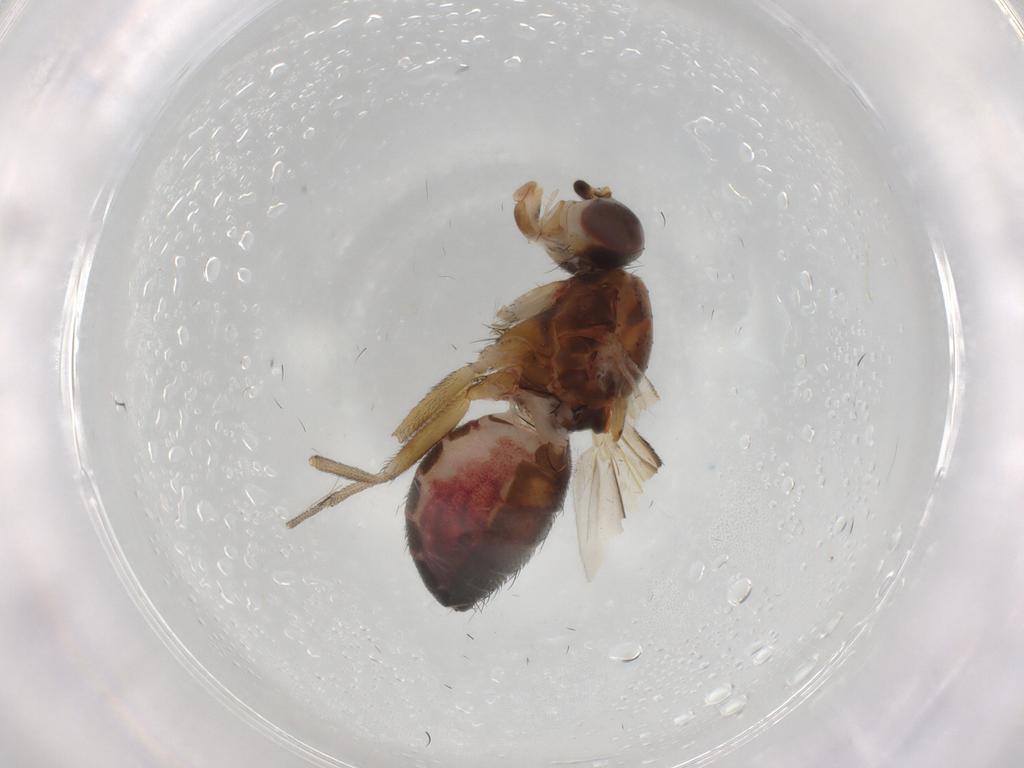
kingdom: Animalia
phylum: Arthropoda
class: Insecta
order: Diptera
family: Heleomyzidae
